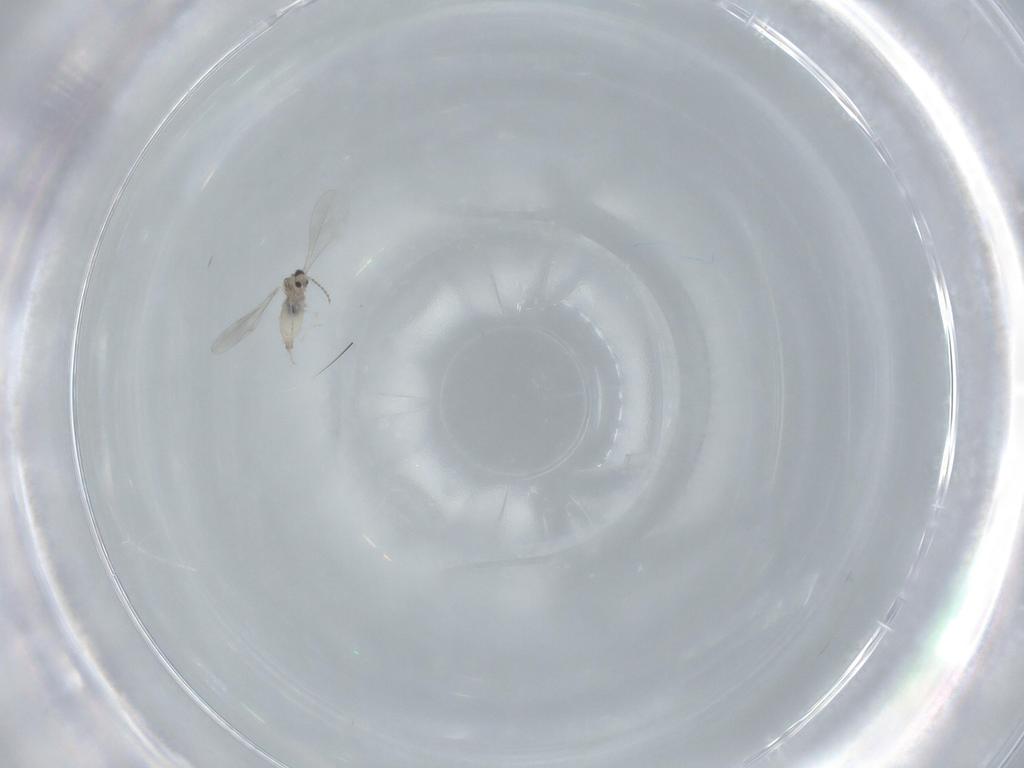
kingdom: Animalia
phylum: Arthropoda
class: Insecta
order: Diptera
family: Cecidomyiidae
